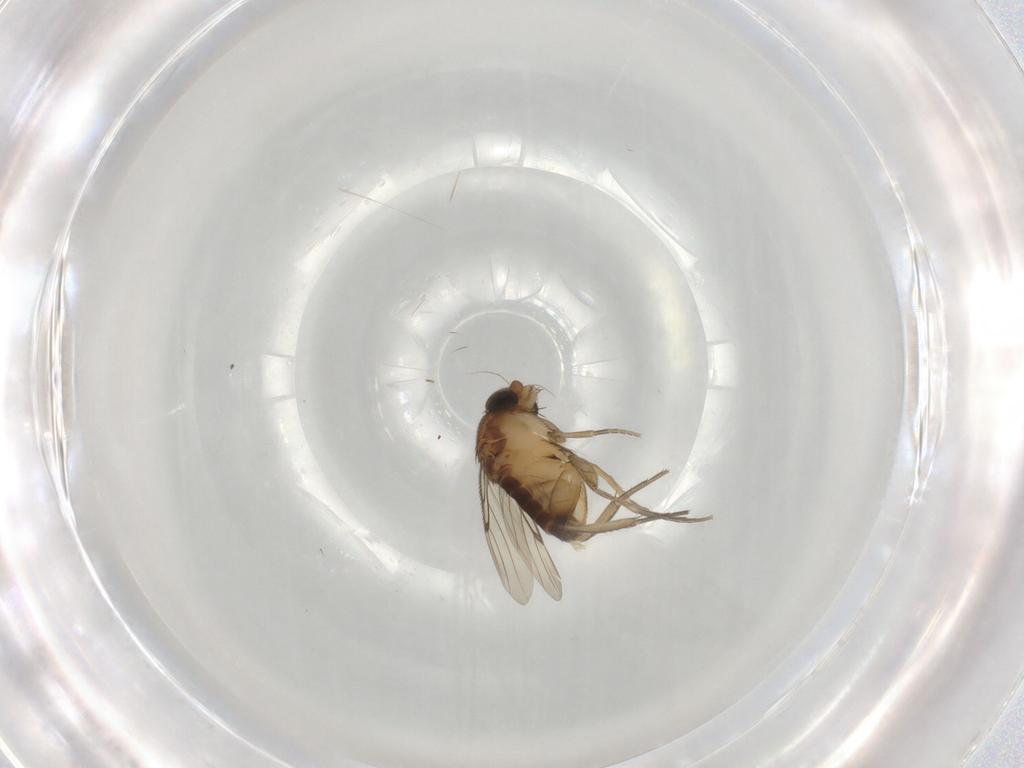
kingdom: Animalia
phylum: Arthropoda
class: Insecta
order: Diptera
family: Phoridae
